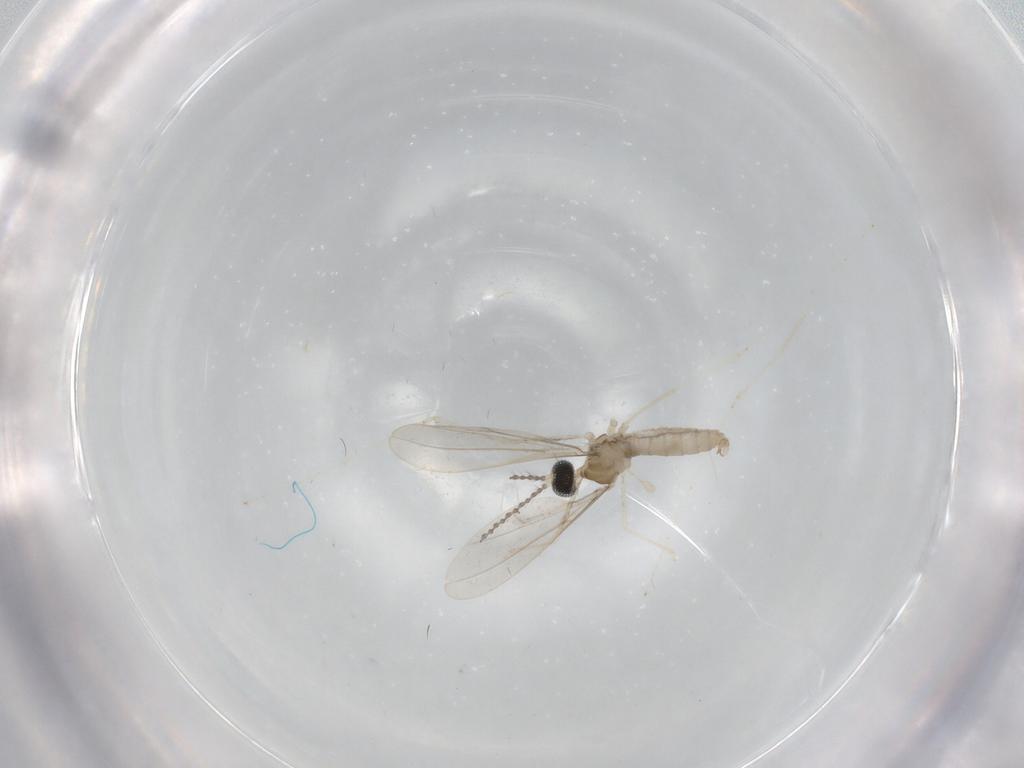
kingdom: Animalia
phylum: Arthropoda
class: Insecta
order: Diptera
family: Cecidomyiidae
